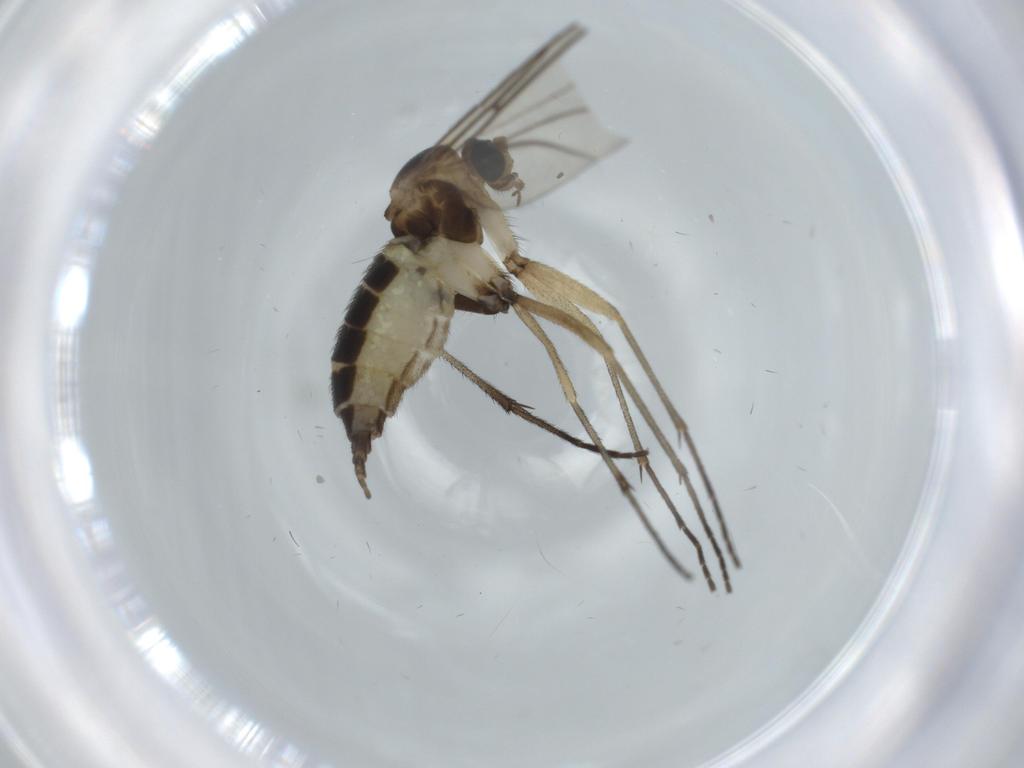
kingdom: Animalia
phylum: Arthropoda
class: Insecta
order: Diptera
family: Sciaridae
